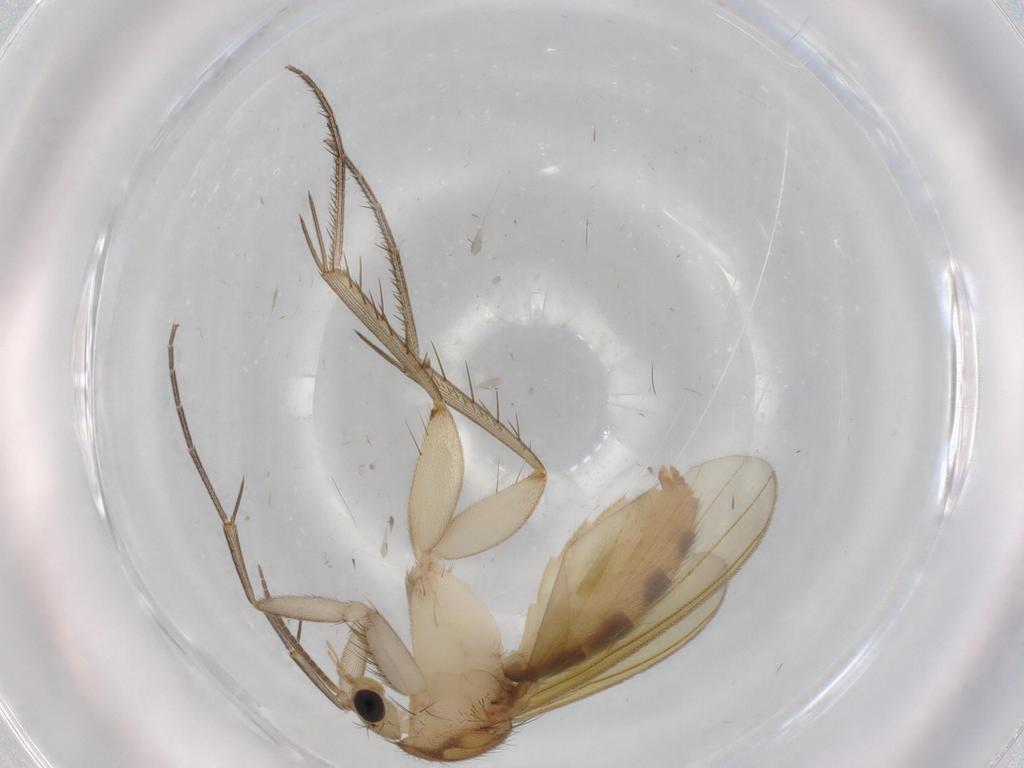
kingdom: Animalia
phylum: Arthropoda
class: Insecta
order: Diptera
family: Mycetophilidae
